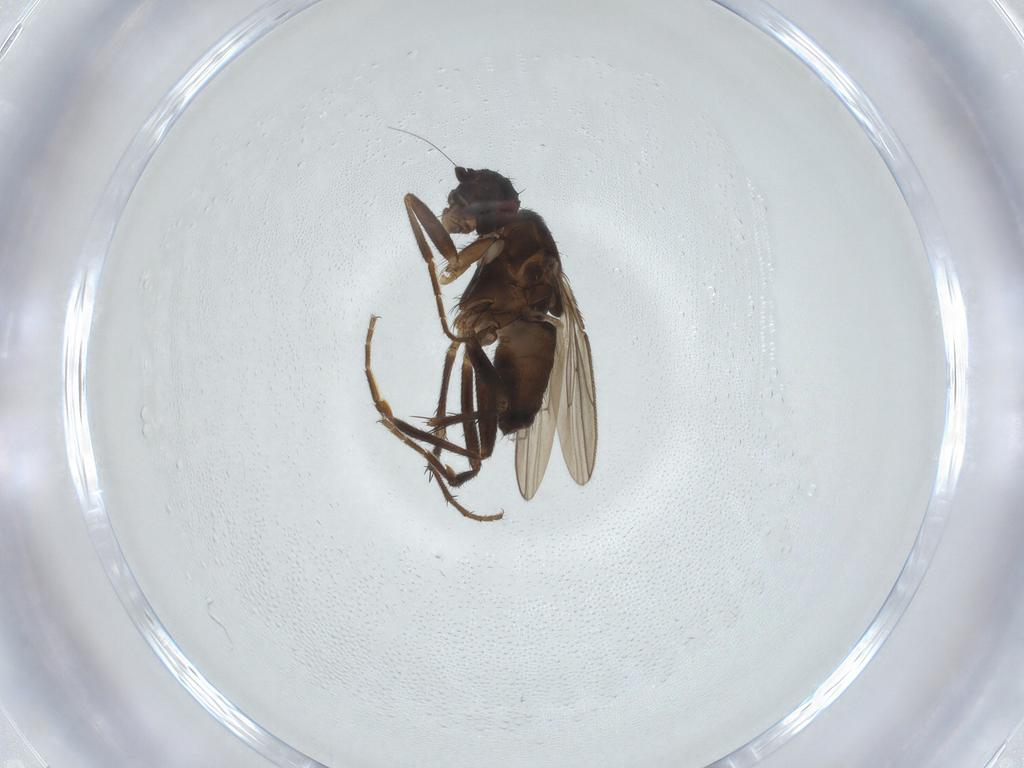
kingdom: Animalia
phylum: Arthropoda
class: Insecta
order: Diptera
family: Sphaeroceridae
